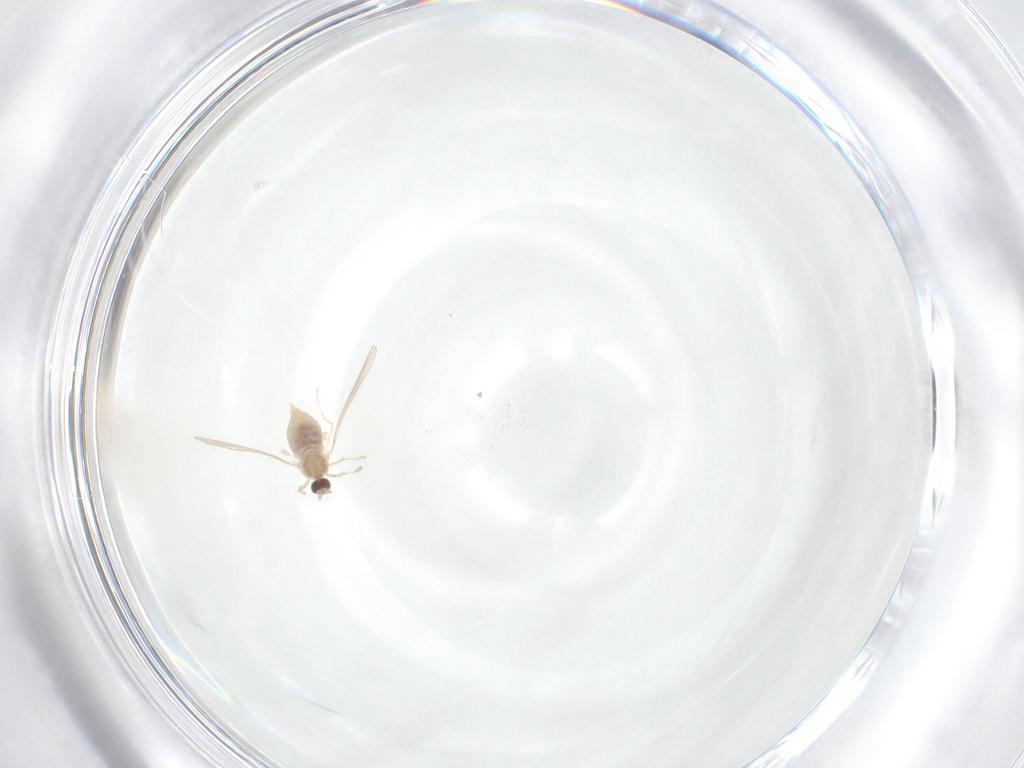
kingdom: Animalia
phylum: Arthropoda
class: Insecta
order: Diptera
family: Cecidomyiidae
